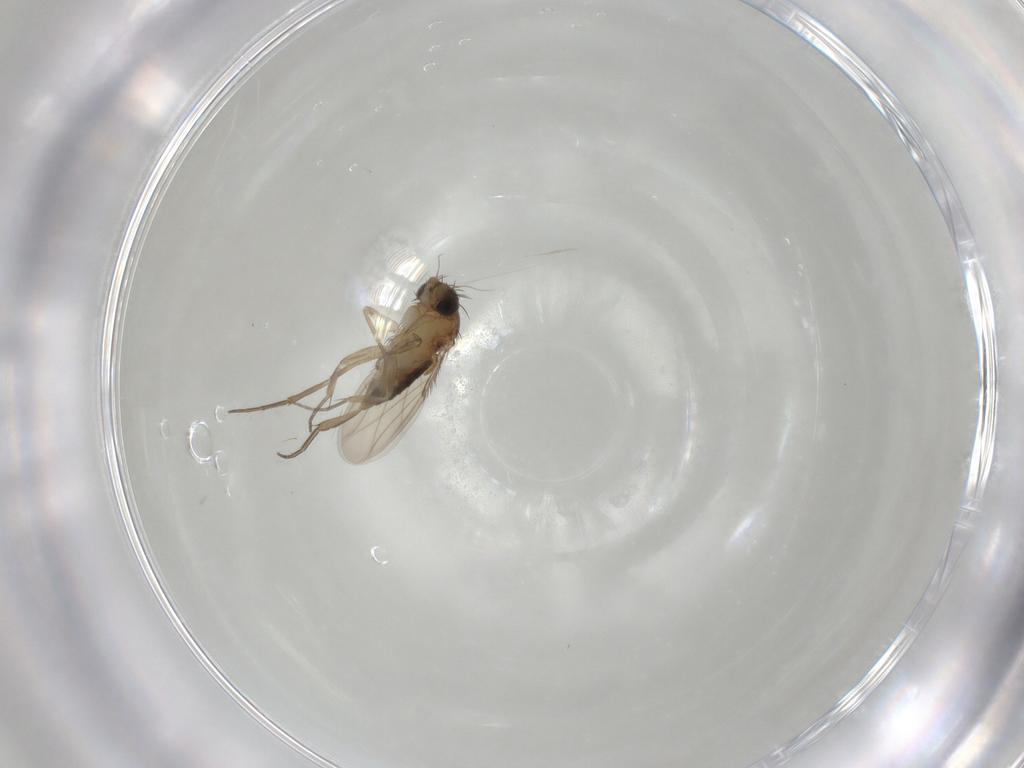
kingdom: Animalia
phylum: Arthropoda
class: Insecta
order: Diptera
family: Phoridae
